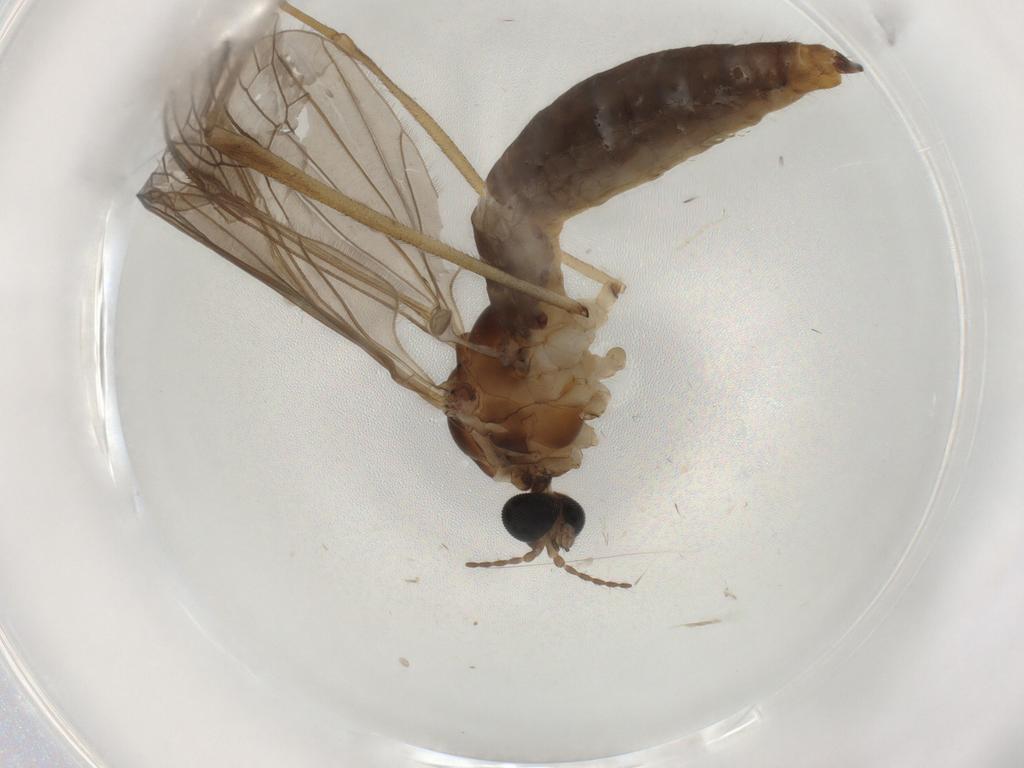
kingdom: Animalia
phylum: Arthropoda
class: Insecta
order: Diptera
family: Limoniidae
